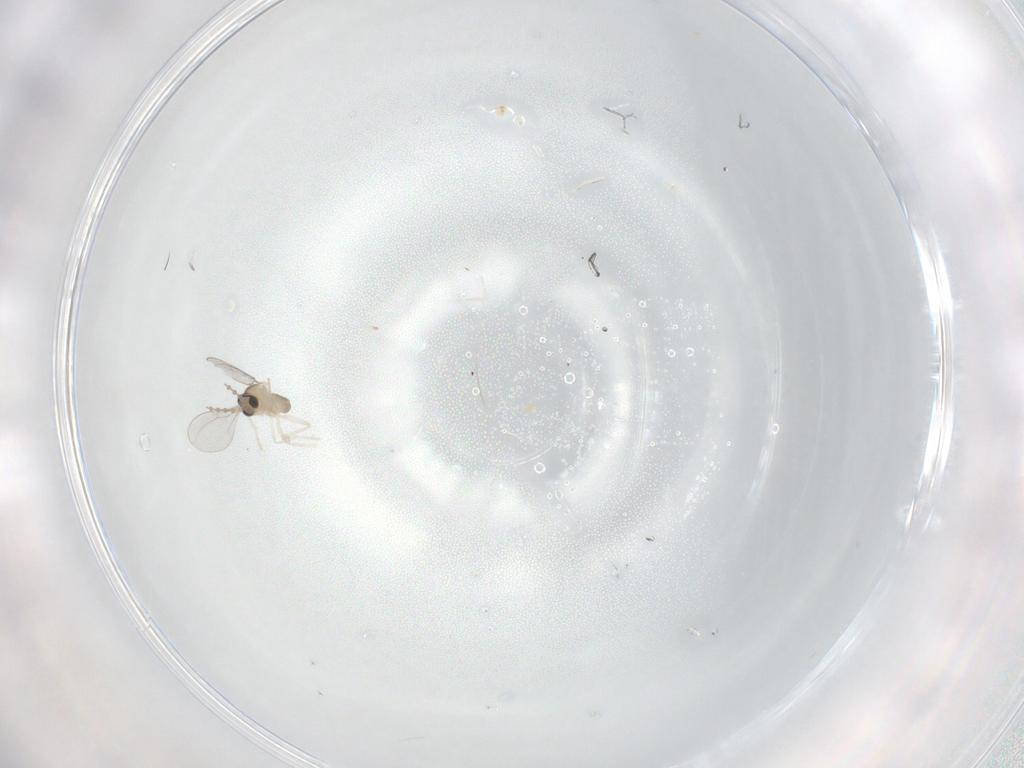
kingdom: Animalia
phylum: Arthropoda
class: Insecta
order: Diptera
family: Cecidomyiidae
